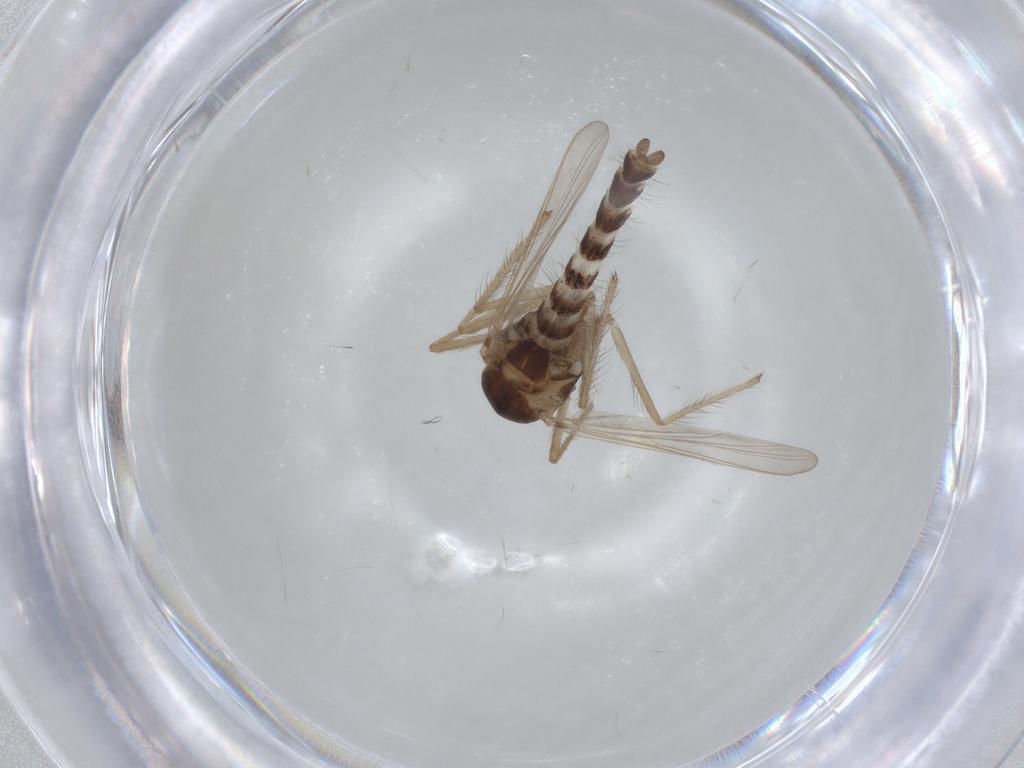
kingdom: Animalia
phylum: Arthropoda
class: Insecta
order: Diptera
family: Chironomidae
